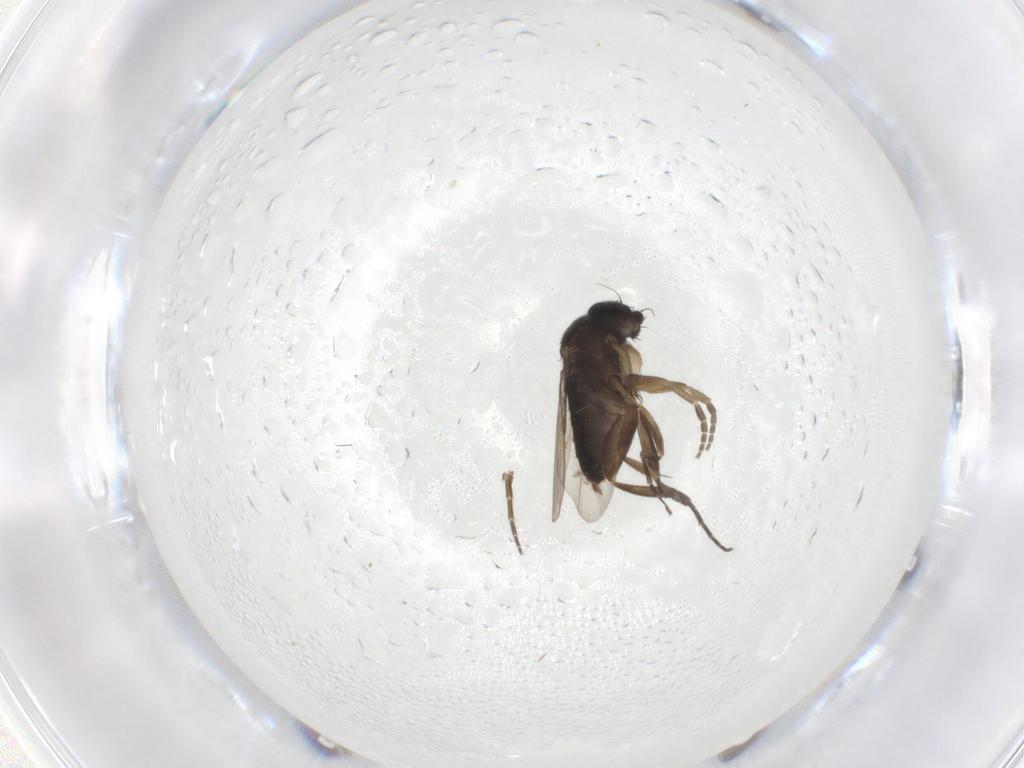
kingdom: Animalia
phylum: Arthropoda
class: Insecta
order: Diptera
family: Phoridae
